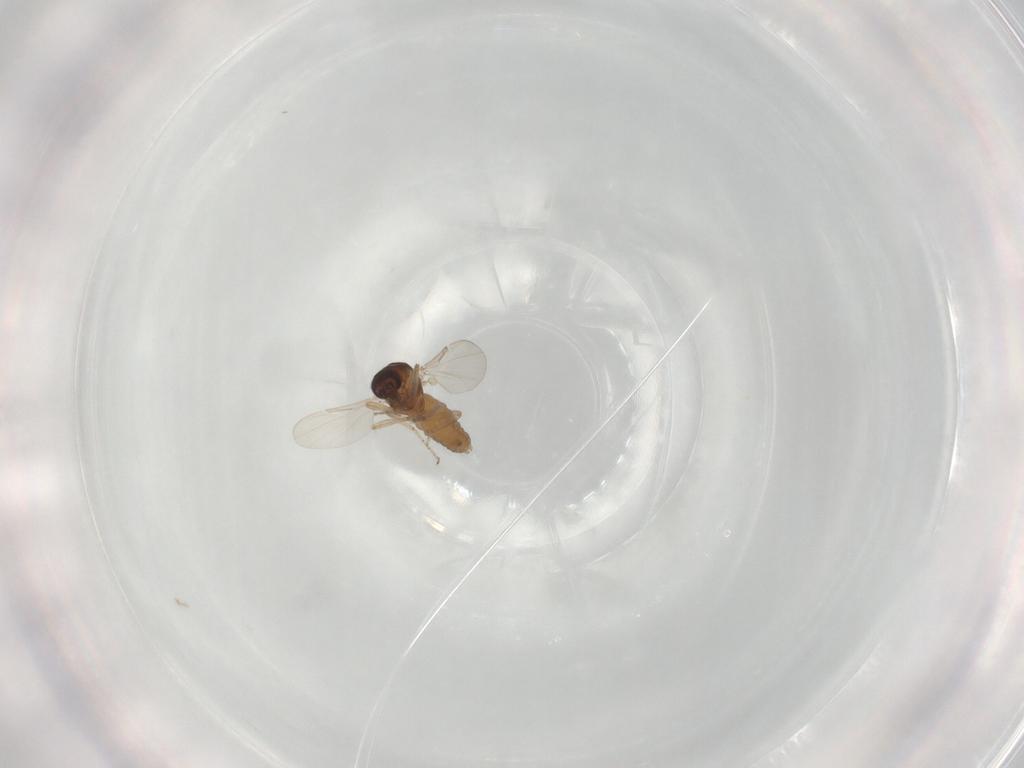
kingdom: Animalia
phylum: Arthropoda
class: Insecta
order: Diptera
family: Ceratopogonidae
